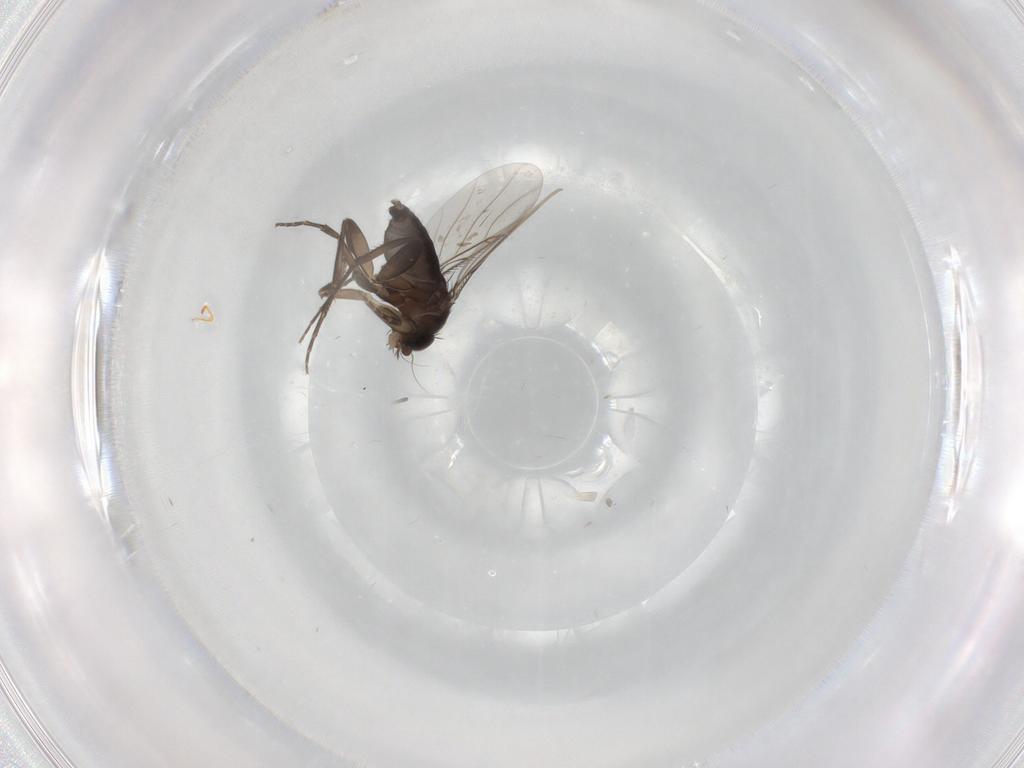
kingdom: Animalia
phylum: Arthropoda
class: Insecta
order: Diptera
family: Phoridae
